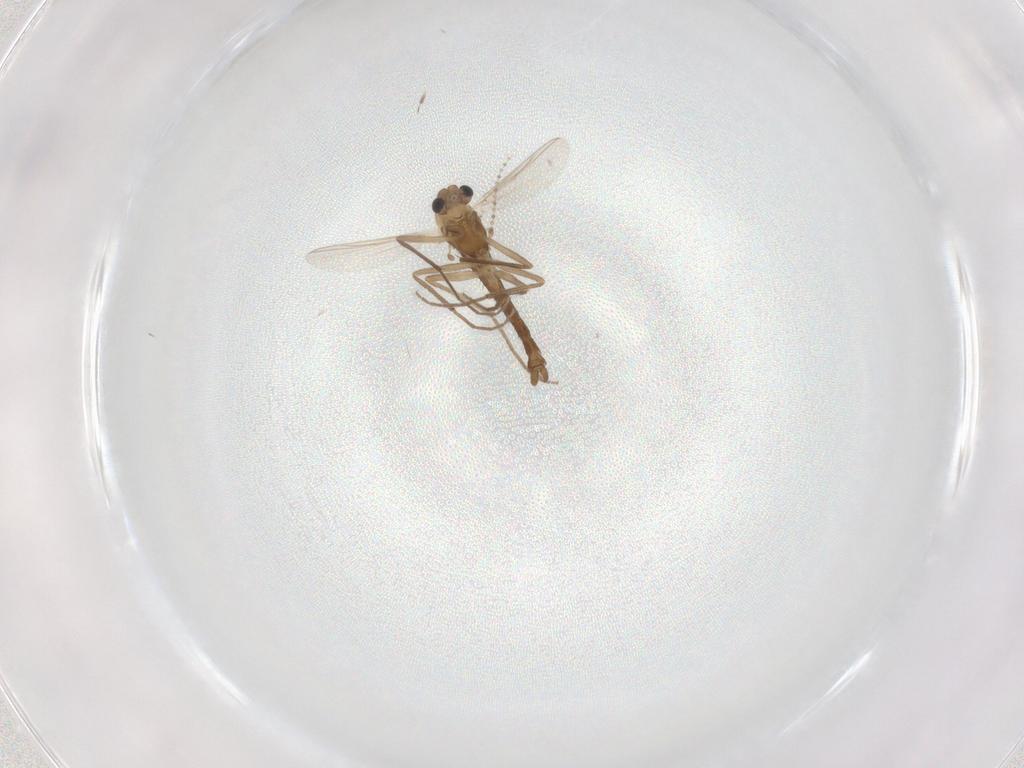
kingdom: Animalia
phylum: Arthropoda
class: Insecta
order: Diptera
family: Chironomidae
